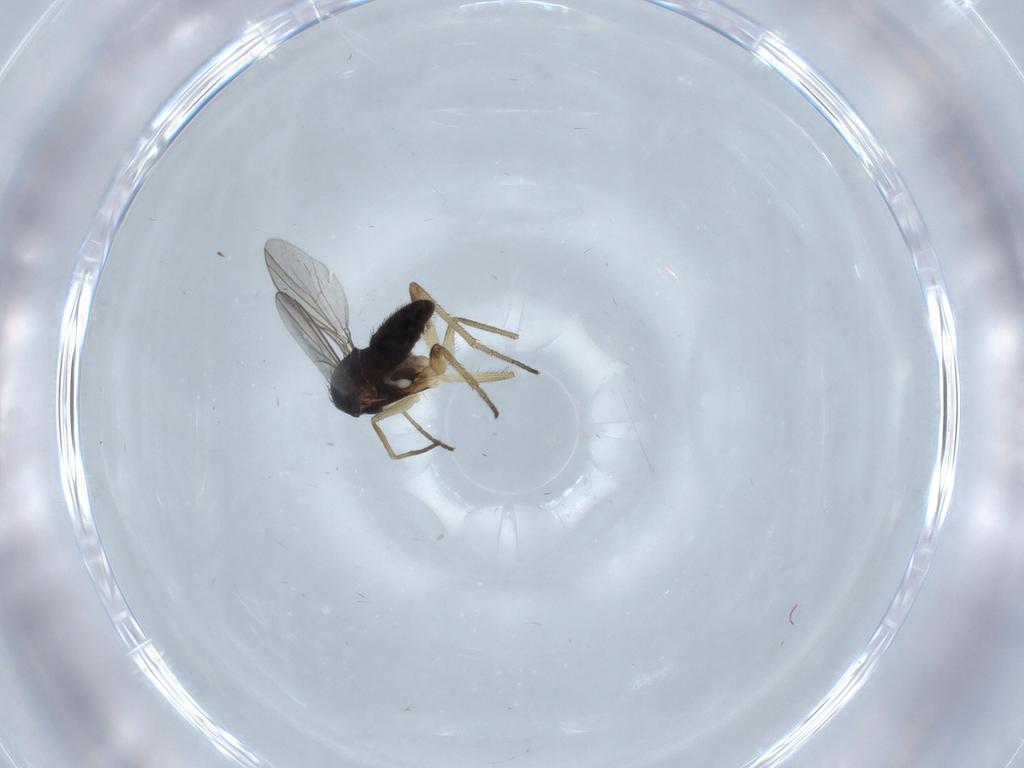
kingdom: Animalia
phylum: Arthropoda
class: Insecta
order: Diptera
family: Dolichopodidae
